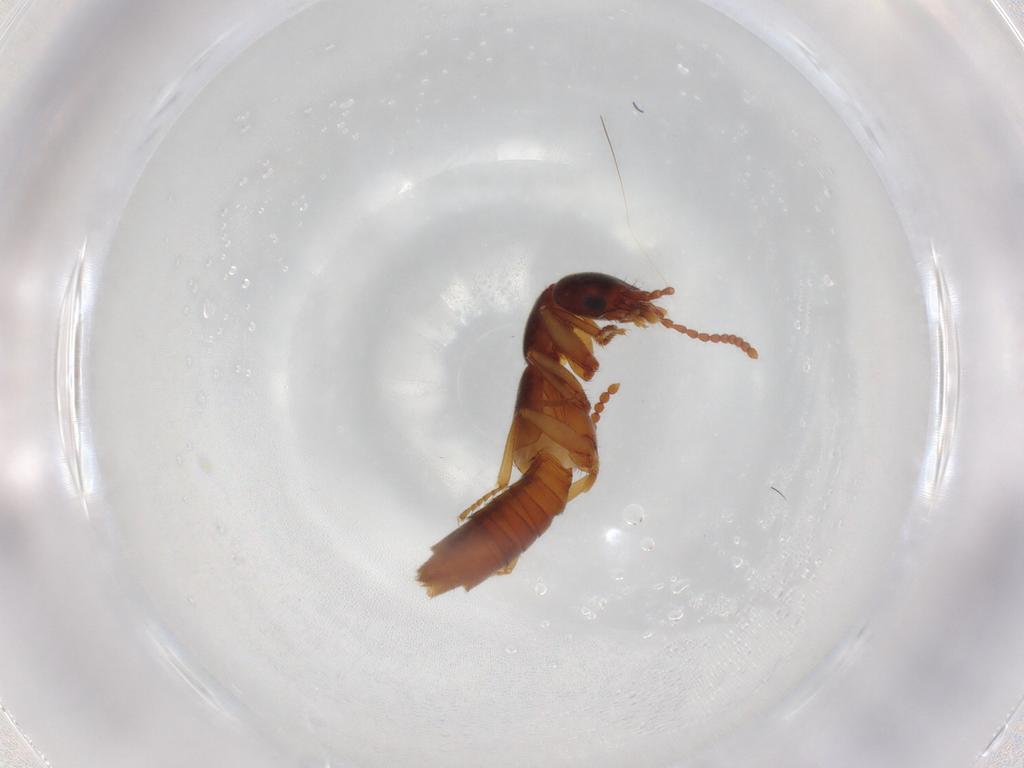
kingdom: Animalia
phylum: Arthropoda
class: Insecta
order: Coleoptera
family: Staphylinidae
